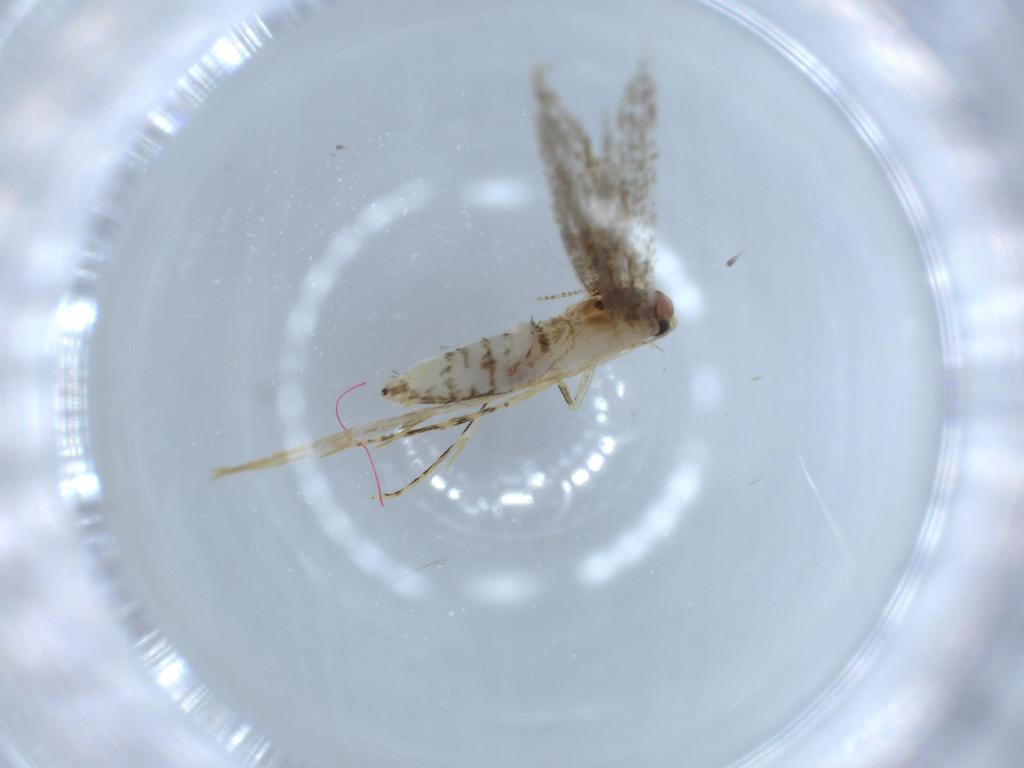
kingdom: Animalia
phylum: Arthropoda
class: Insecta
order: Lepidoptera
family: Tineidae
